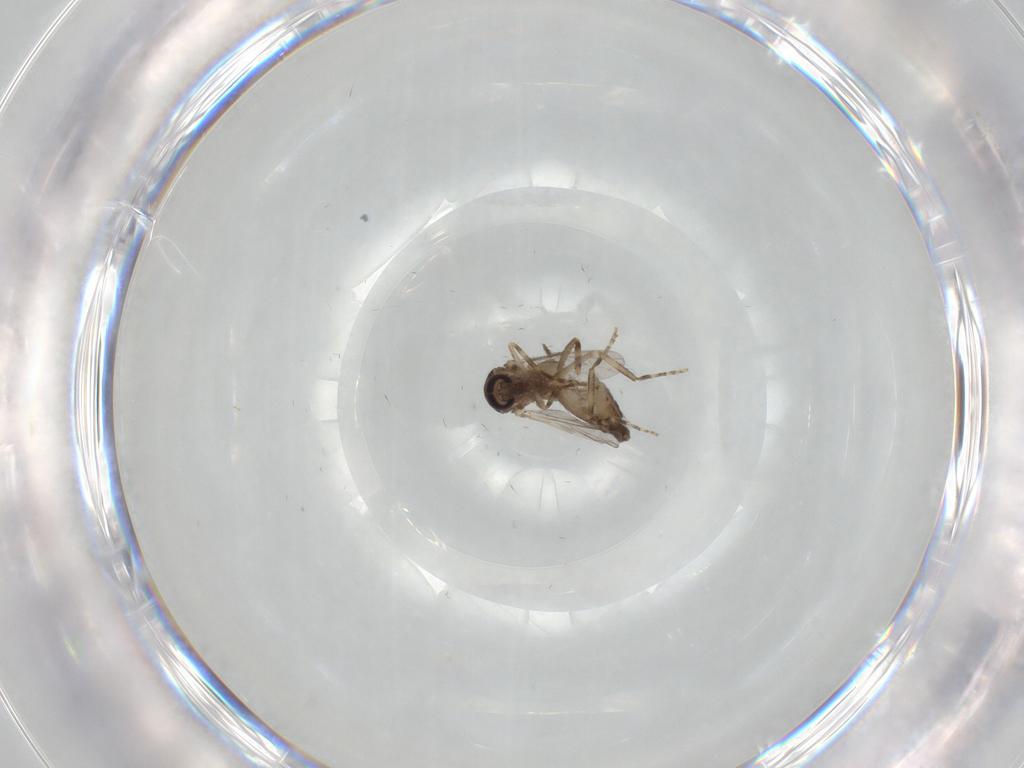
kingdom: Animalia
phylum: Arthropoda
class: Insecta
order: Diptera
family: Ceratopogonidae
